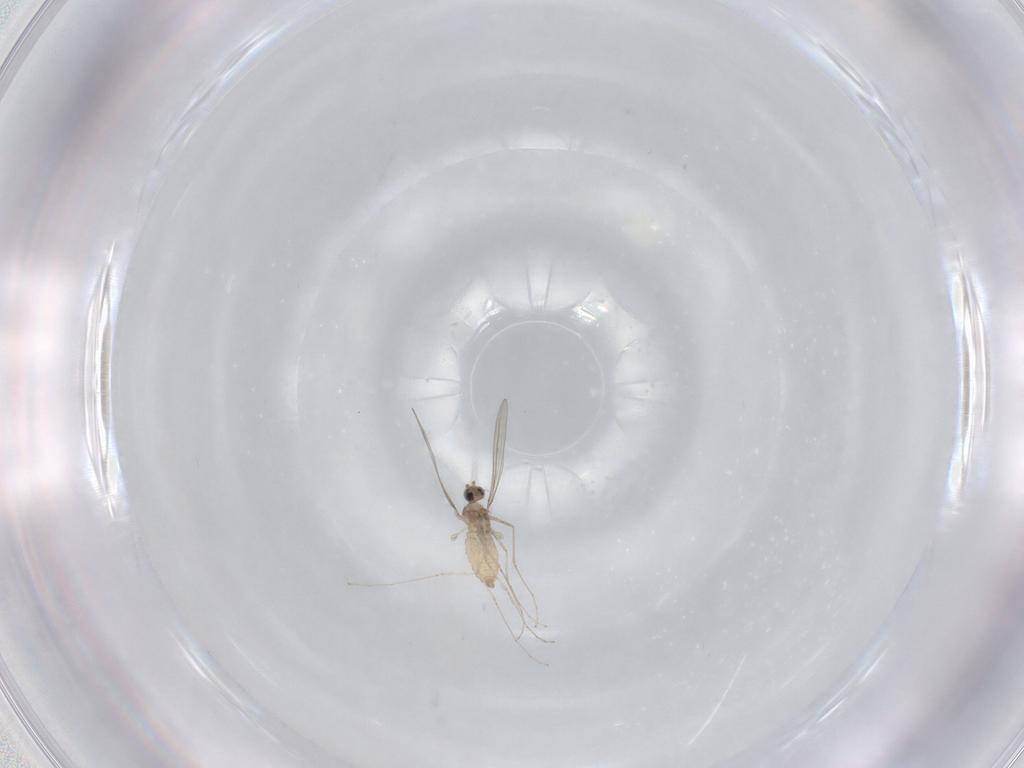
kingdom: Animalia
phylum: Arthropoda
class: Insecta
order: Diptera
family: Cecidomyiidae
